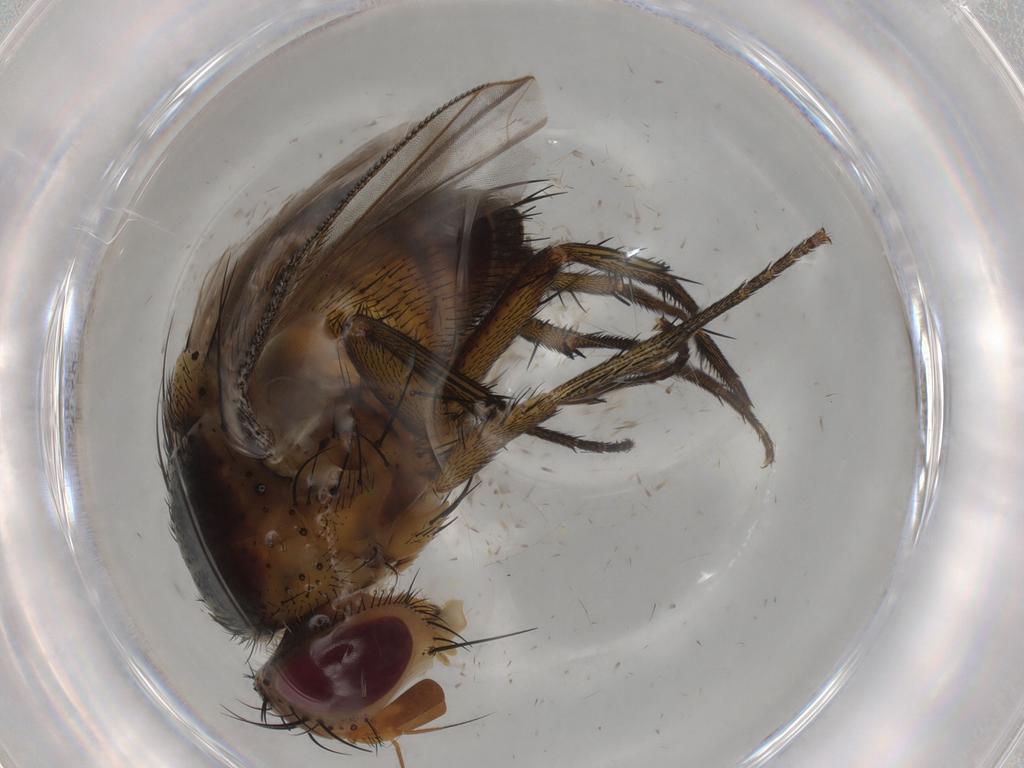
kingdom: Animalia
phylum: Arthropoda
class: Insecta
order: Diptera
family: Tachinidae
